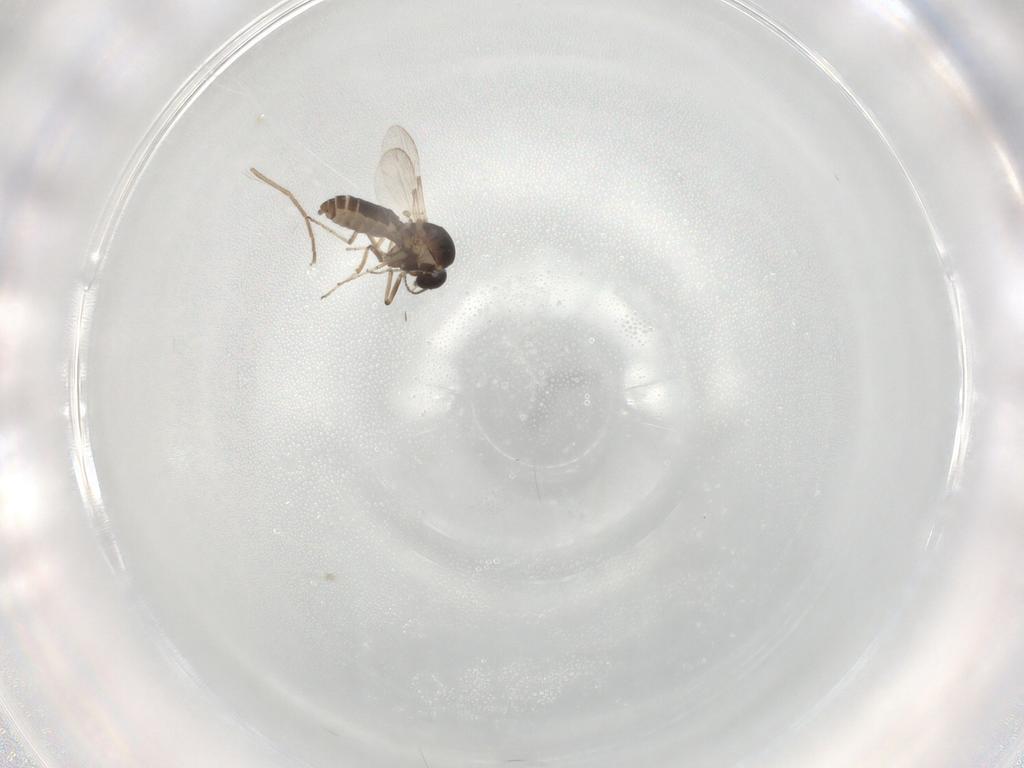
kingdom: Animalia
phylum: Arthropoda
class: Insecta
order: Diptera
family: Ceratopogonidae
